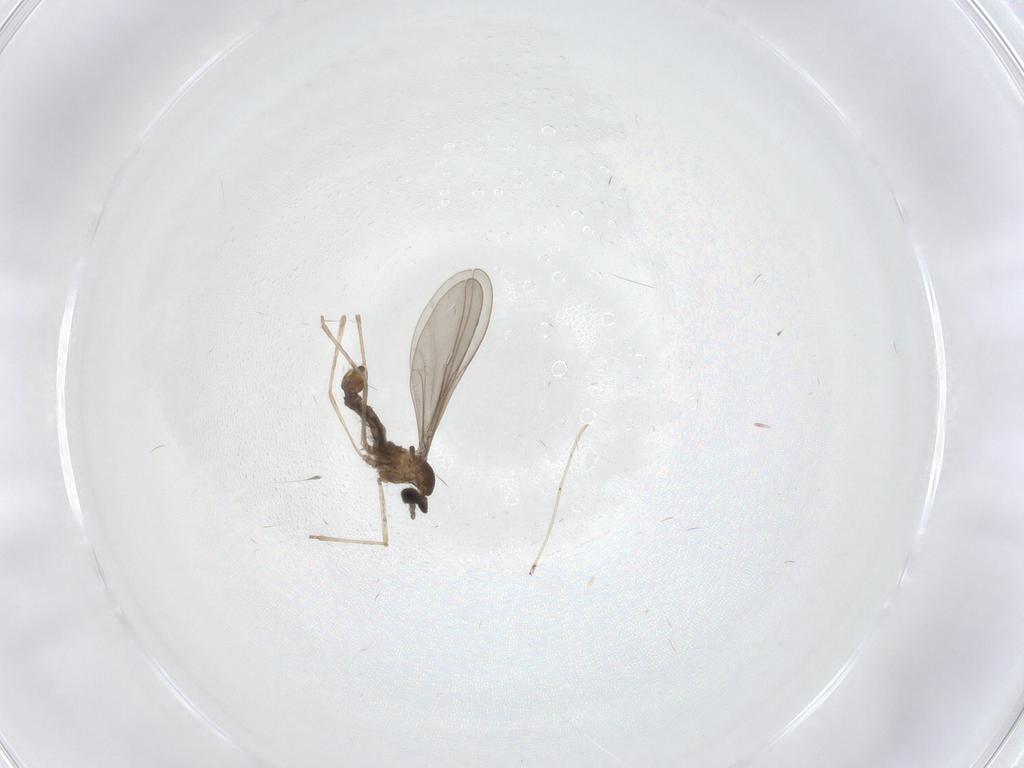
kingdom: Animalia
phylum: Arthropoda
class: Insecta
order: Diptera
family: Cecidomyiidae
